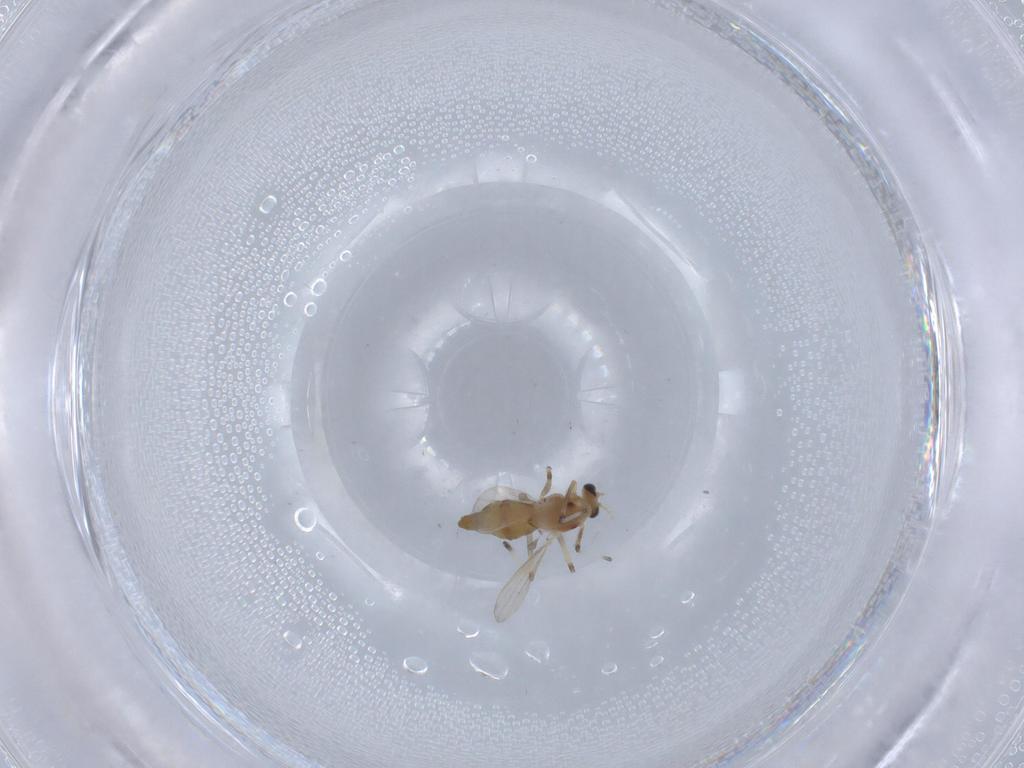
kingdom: Animalia
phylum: Arthropoda
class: Insecta
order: Diptera
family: Chironomidae
